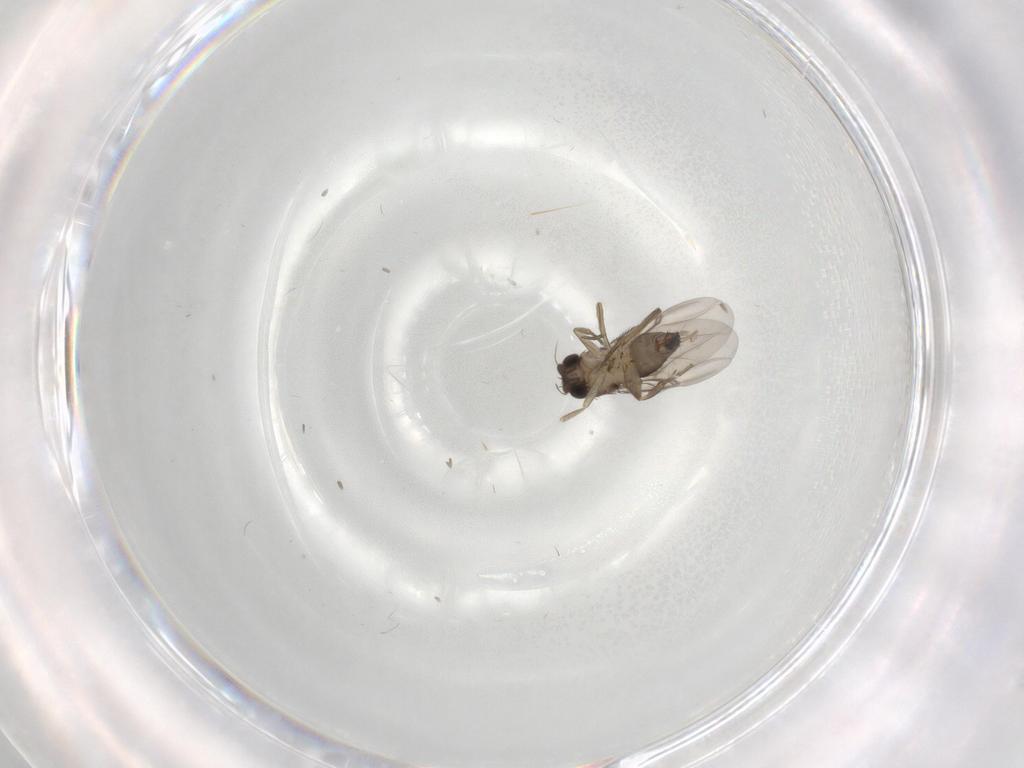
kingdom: Animalia
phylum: Arthropoda
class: Insecta
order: Diptera
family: Phoridae
